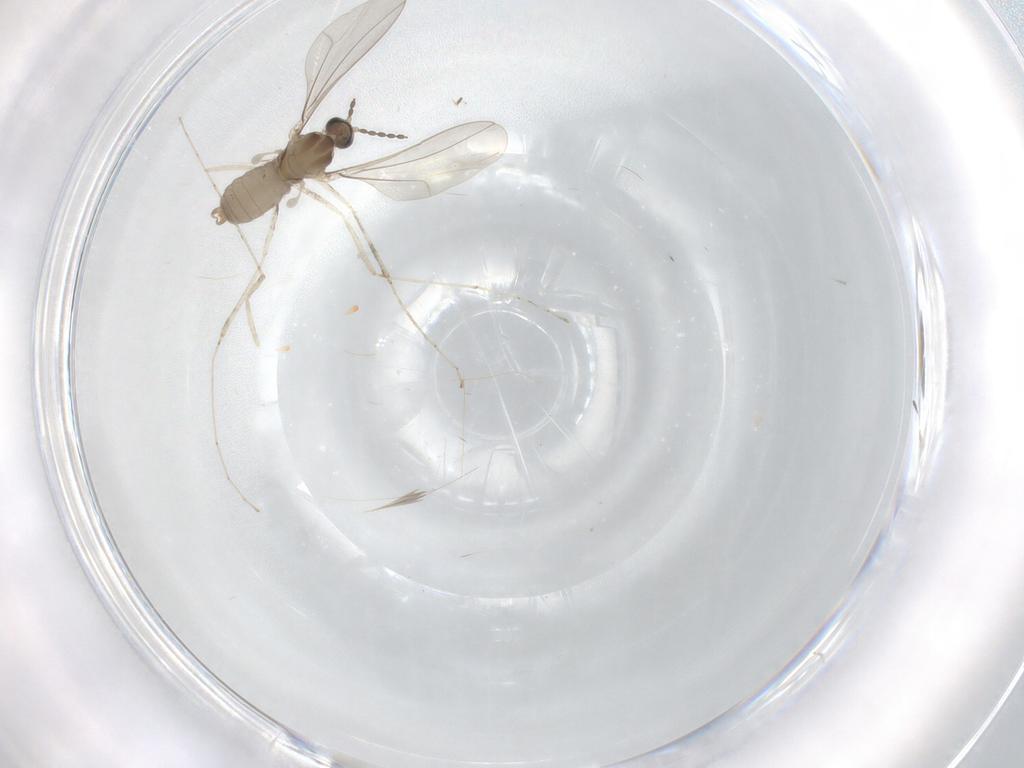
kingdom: Animalia
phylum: Arthropoda
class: Insecta
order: Diptera
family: Cecidomyiidae
